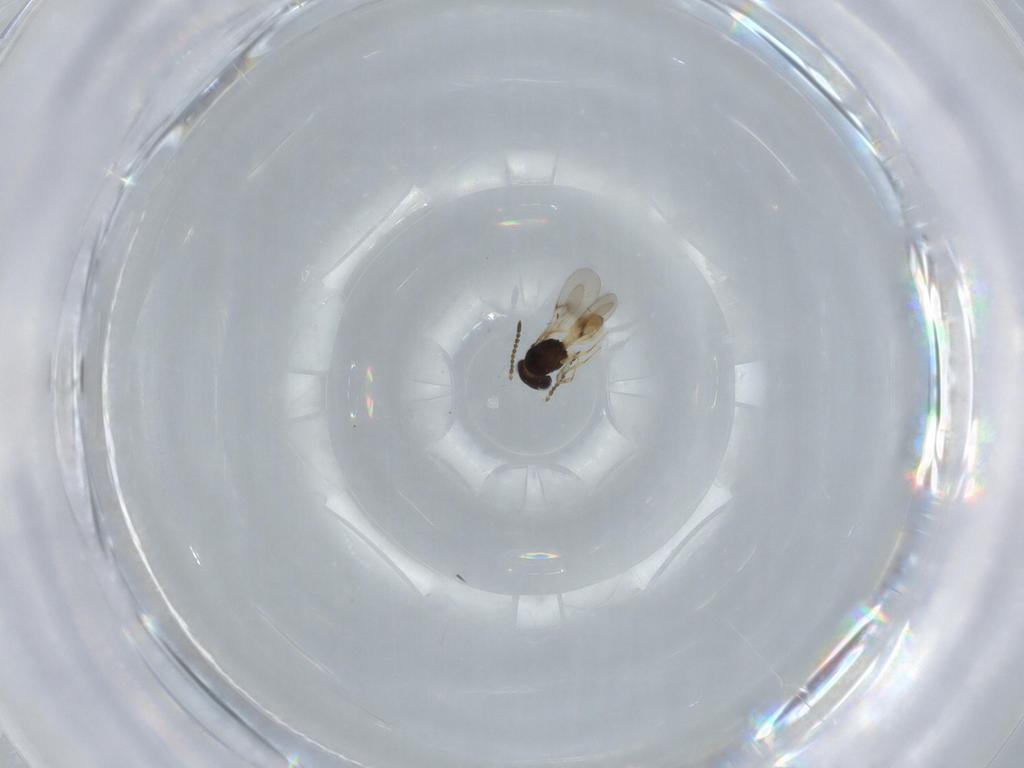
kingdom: Animalia
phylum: Arthropoda
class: Insecta
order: Hymenoptera
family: Scelionidae
